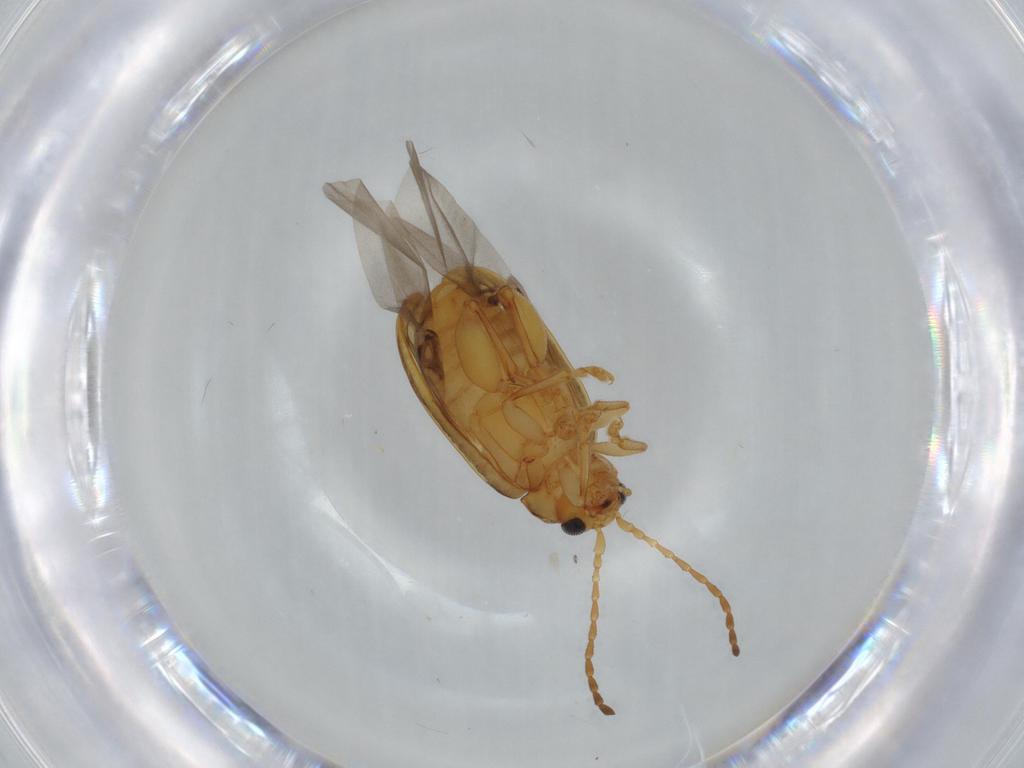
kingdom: Animalia
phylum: Arthropoda
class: Insecta
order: Coleoptera
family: Chrysomelidae
